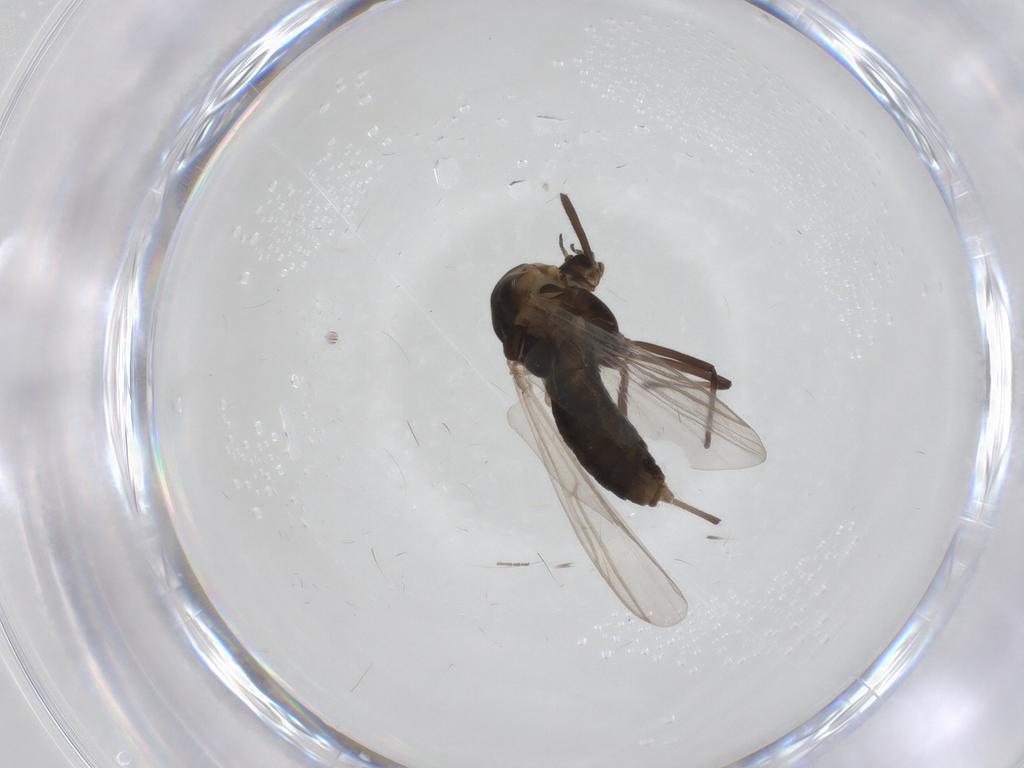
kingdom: Animalia
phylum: Arthropoda
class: Insecta
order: Diptera
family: Chironomidae
